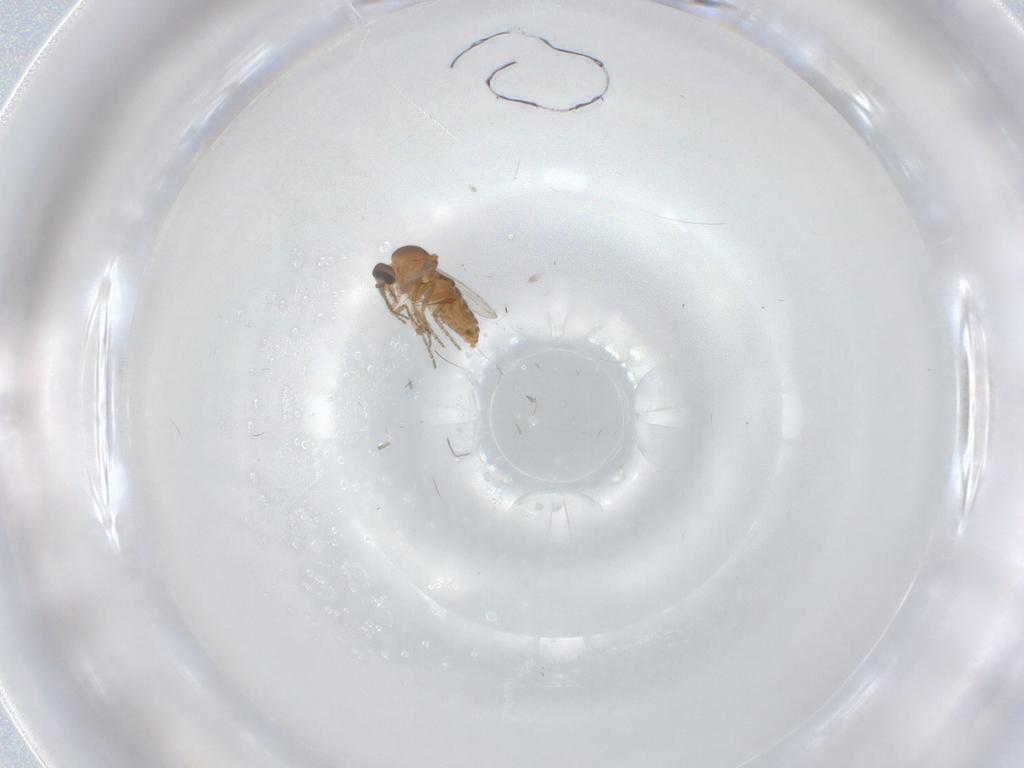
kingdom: Animalia
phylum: Arthropoda
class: Insecta
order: Diptera
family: Ceratopogonidae
